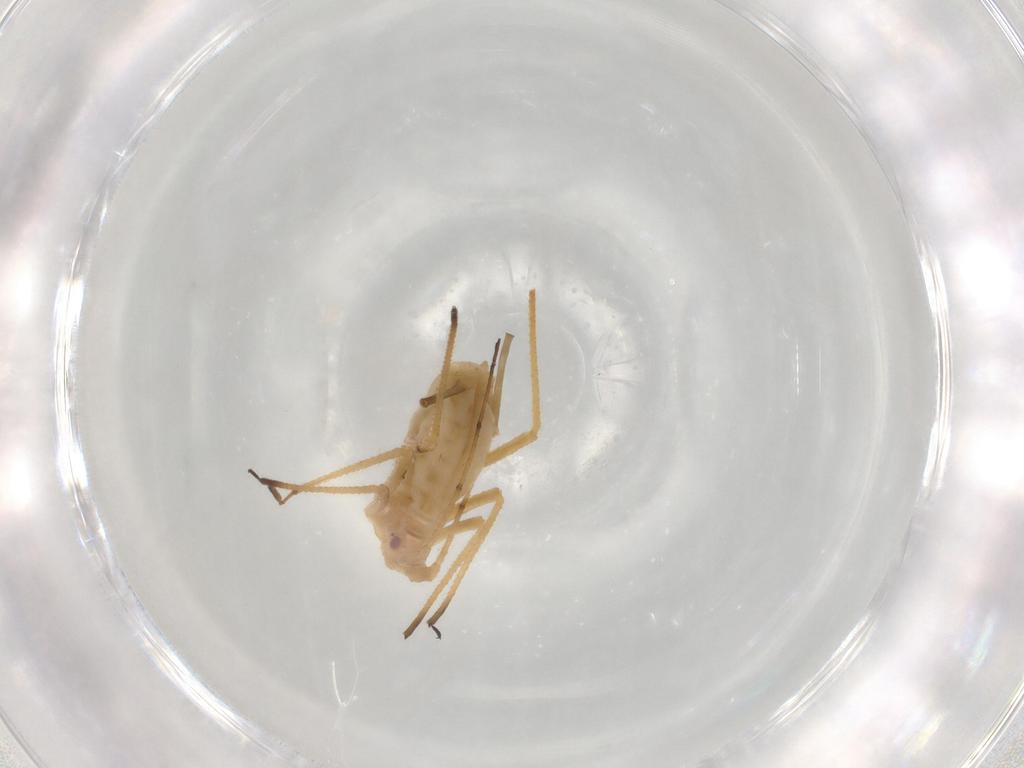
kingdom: Animalia
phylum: Arthropoda
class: Insecta
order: Hemiptera
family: Aphididae
